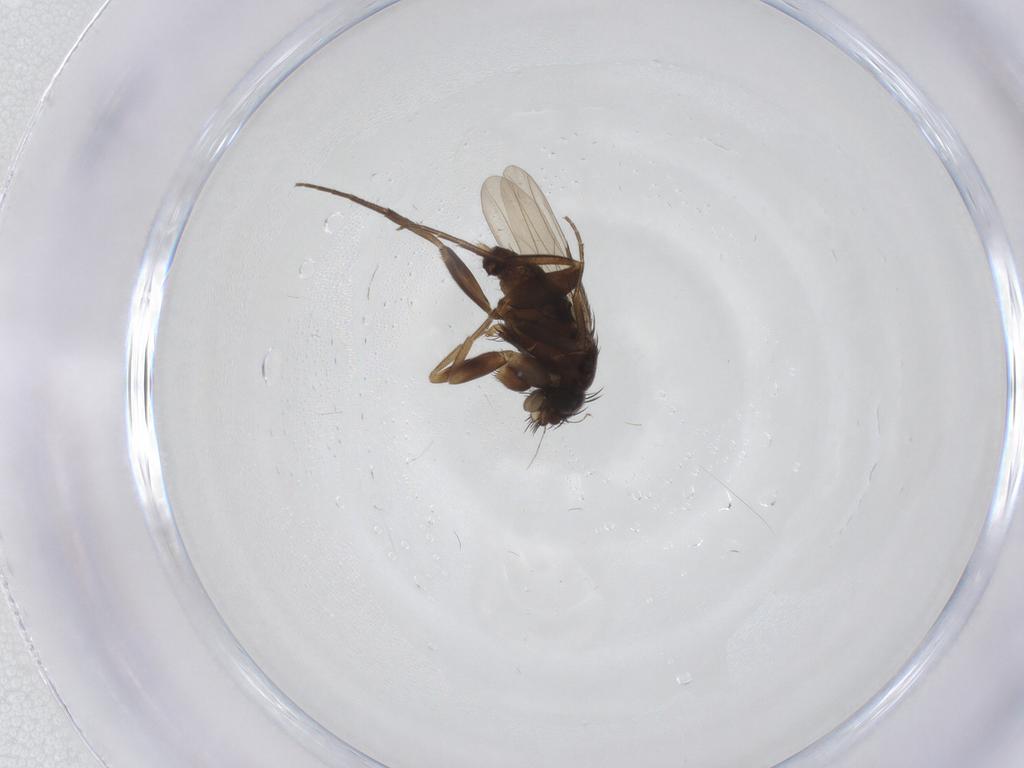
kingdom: Animalia
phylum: Arthropoda
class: Insecta
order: Diptera
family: Phoridae
